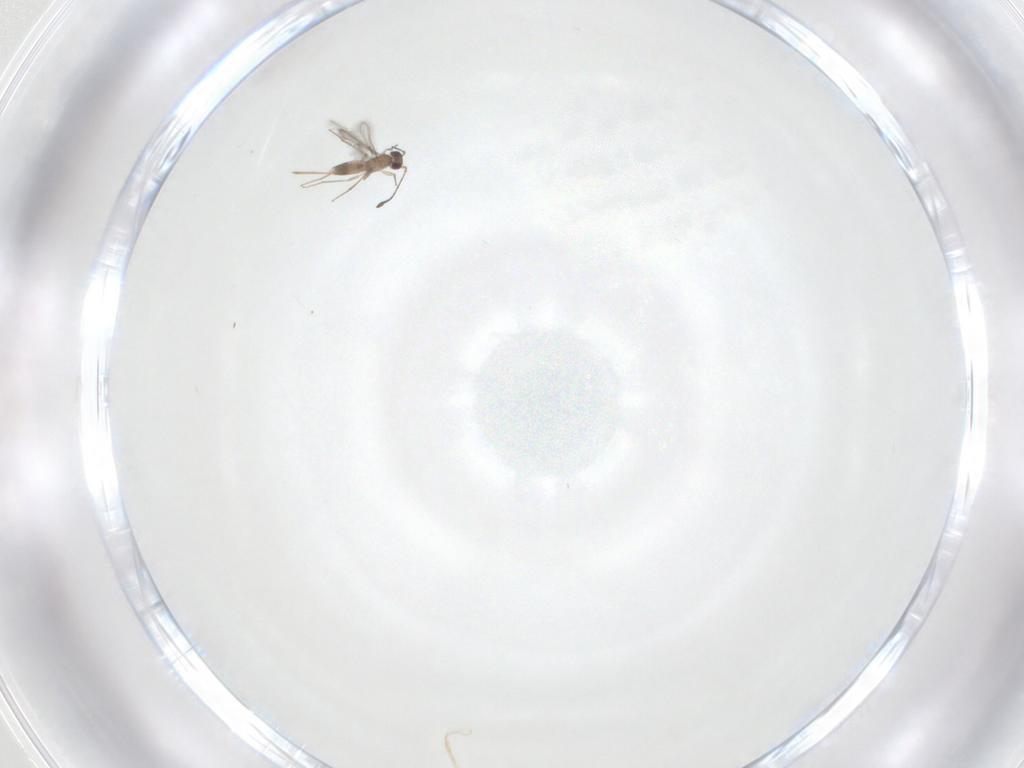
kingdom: Animalia
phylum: Arthropoda
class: Insecta
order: Hymenoptera
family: Mymaridae
